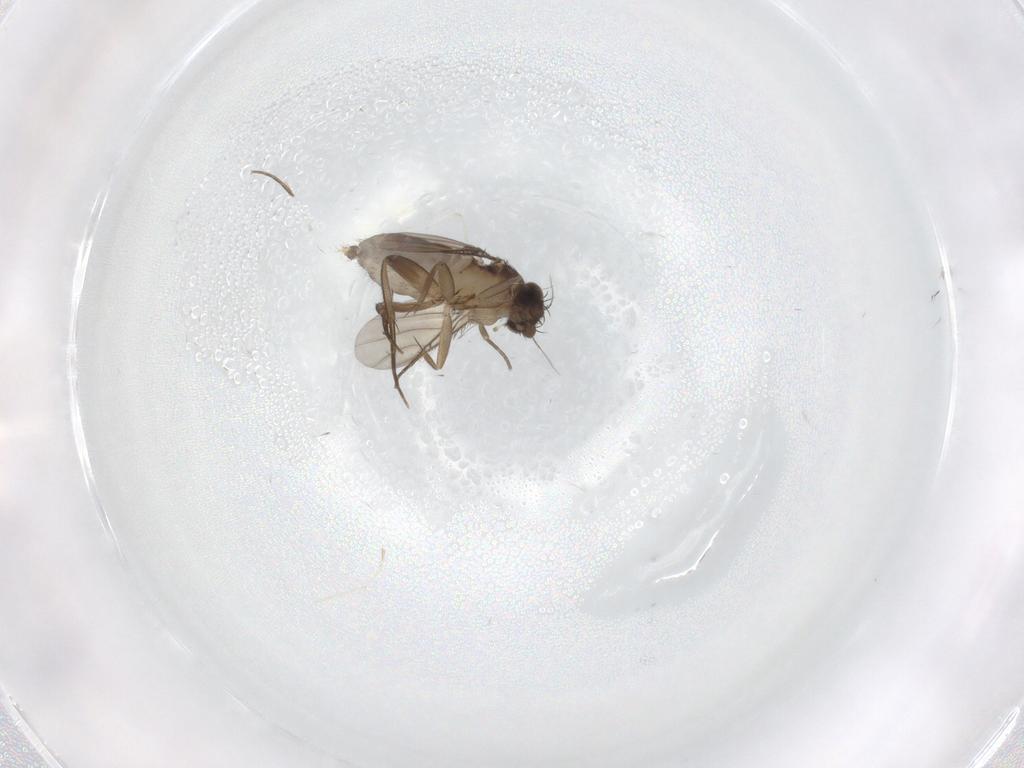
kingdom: Animalia
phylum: Arthropoda
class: Insecta
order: Diptera
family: Phoridae
